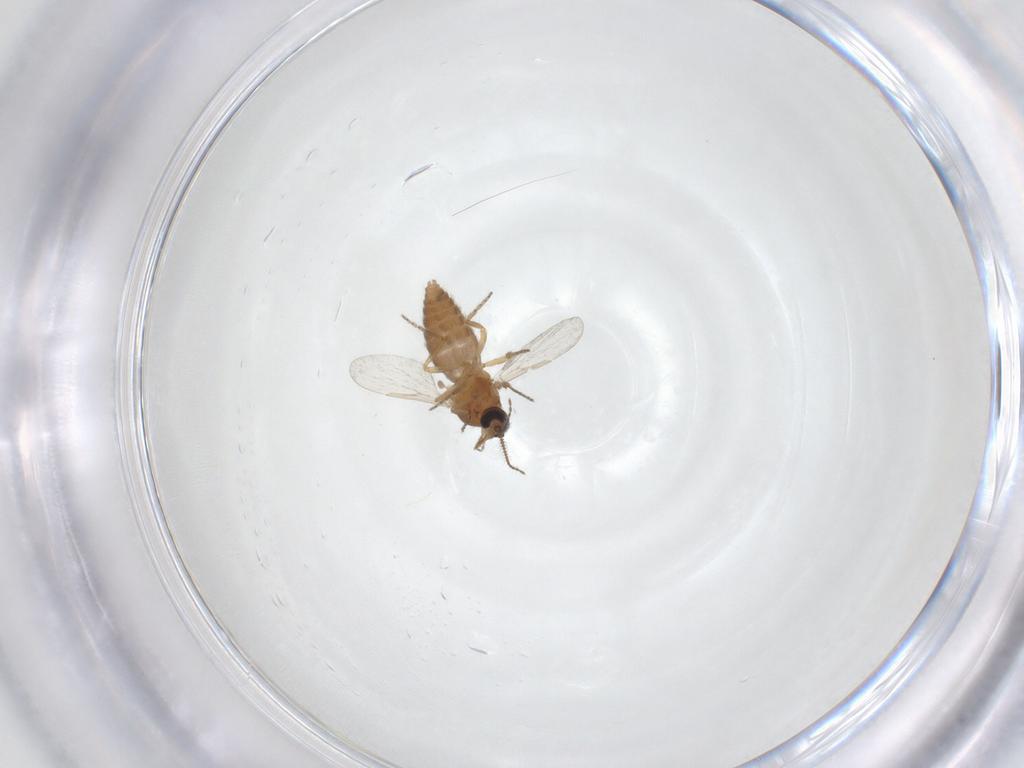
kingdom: Animalia
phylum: Arthropoda
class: Insecta
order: Diptera
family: Ceratopogonidae
